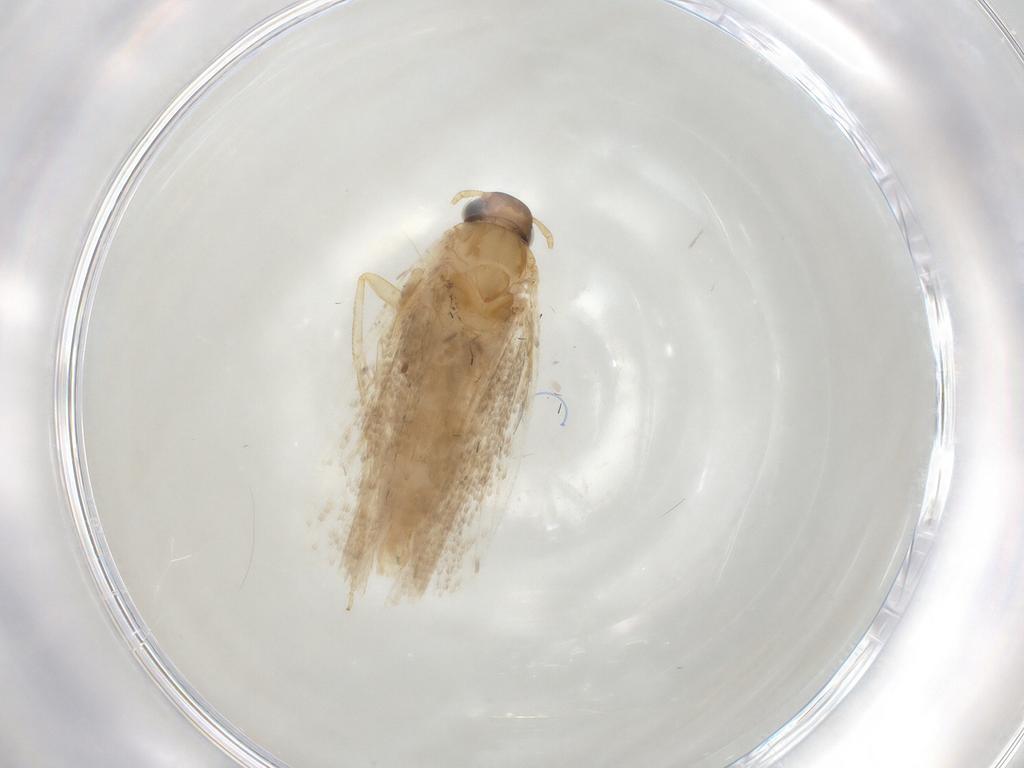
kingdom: Animalia
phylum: Arthropoda
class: Insecta
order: Lepidoptera
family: Gelechiidae
